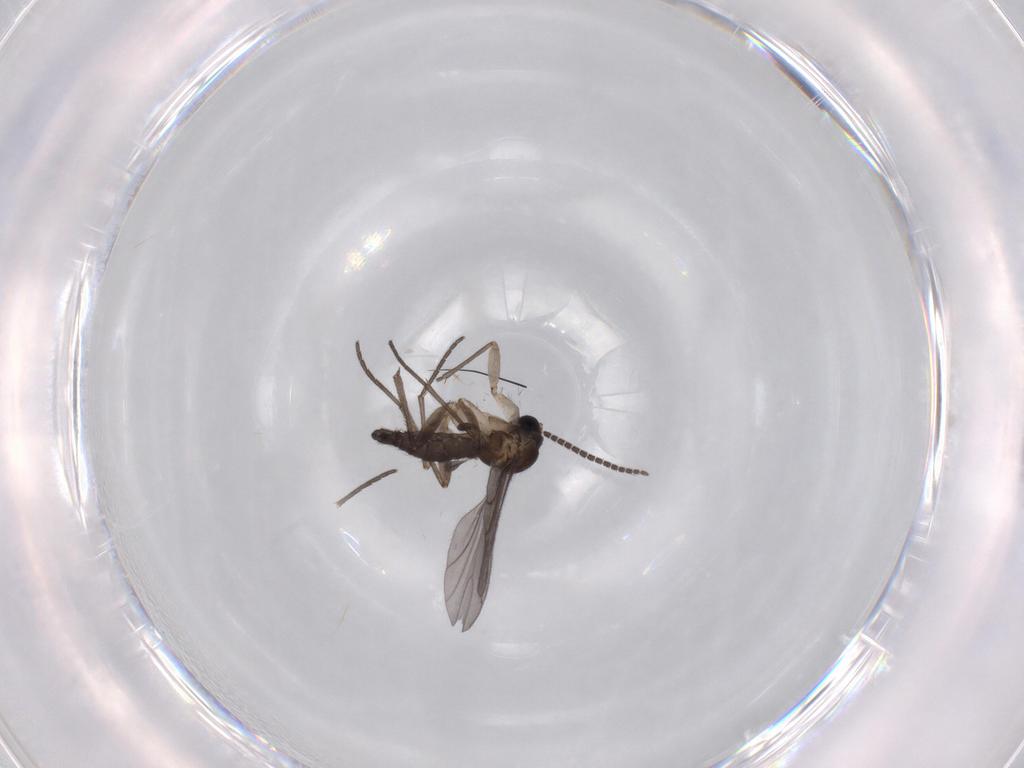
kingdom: Animalia
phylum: Arthropoda
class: Insecta
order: Diptera
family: Sciaridae
